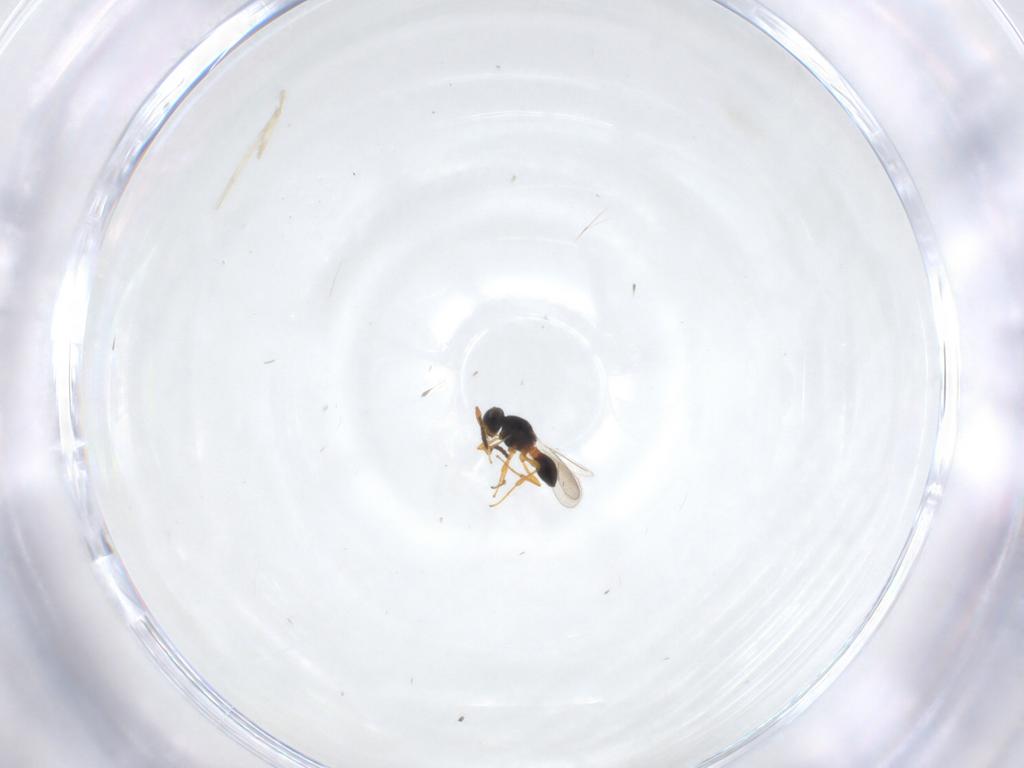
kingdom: Animalia
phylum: Arthropoda
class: Insecta
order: Hymenoptera
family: Platygastridae
